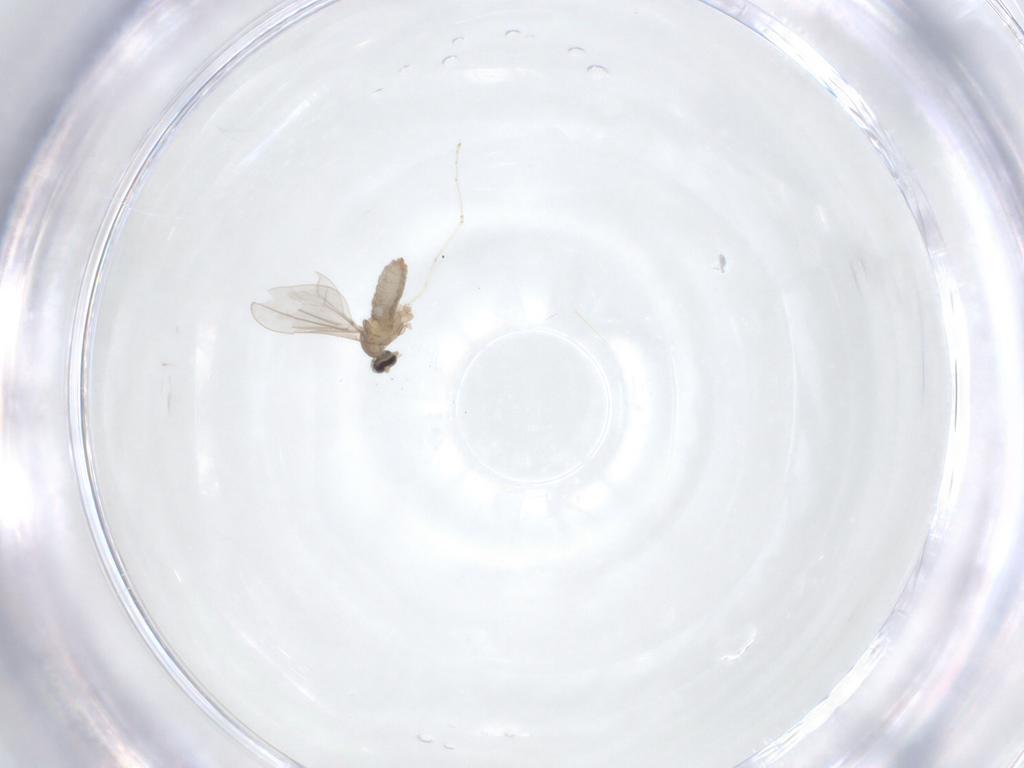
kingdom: Animalia
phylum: Arthropoda
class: Insecta
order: Diptera
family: Cecidomyiidae
